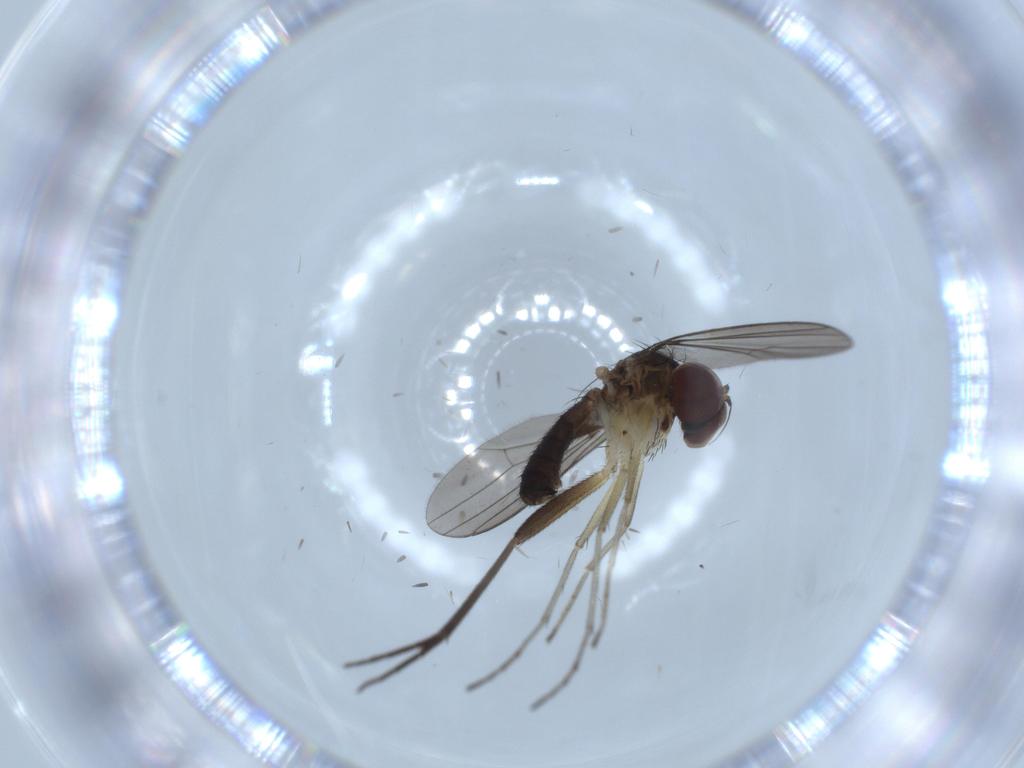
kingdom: Animalia
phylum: Arthropoda
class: Insecta
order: Diptera
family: Dolichopodidae
